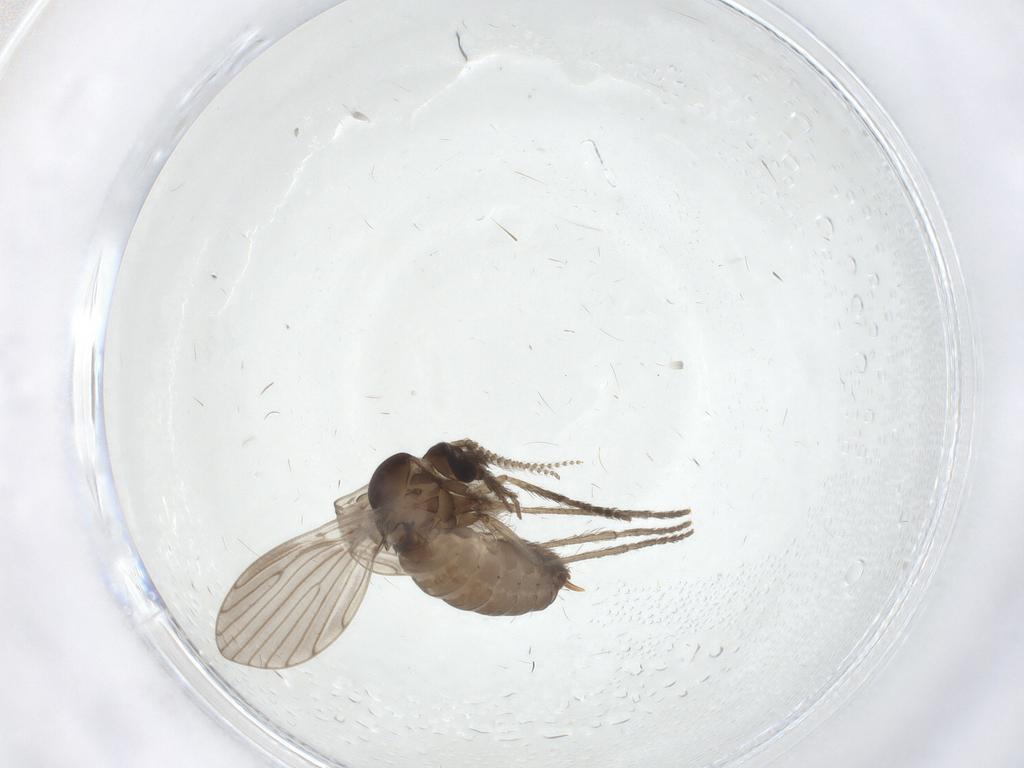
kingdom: Animalia
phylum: Arthropoda
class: Insecta
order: Diptera
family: Psychodidae
